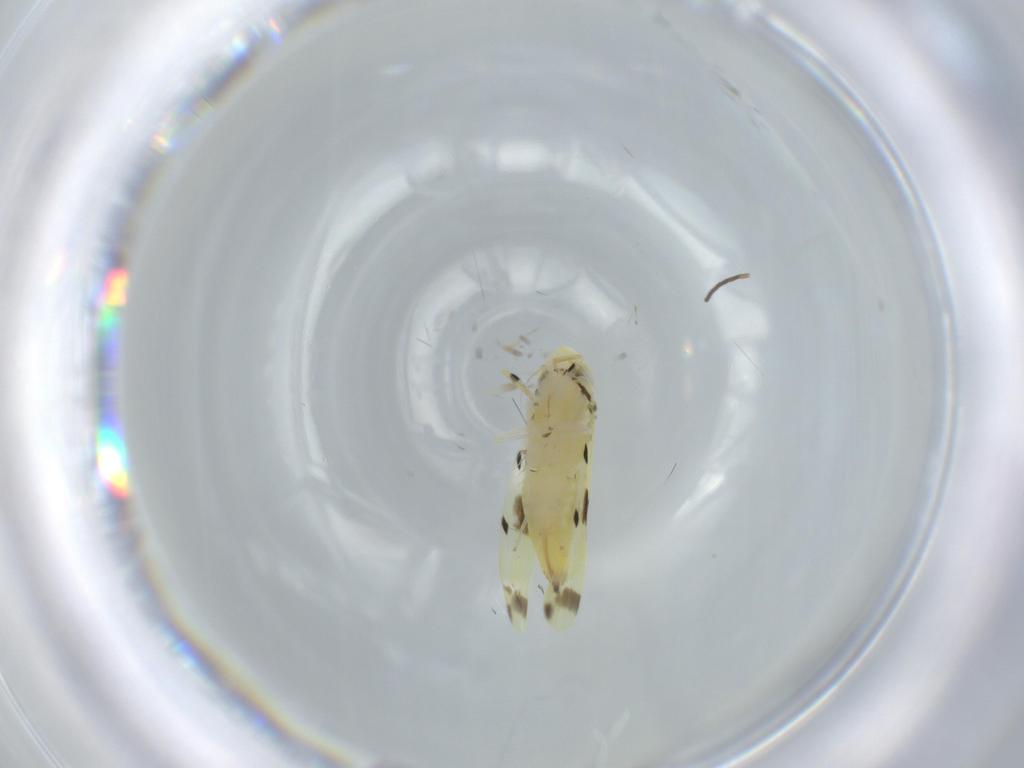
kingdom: Animalia
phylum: Arthropoda
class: Insecta
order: Hemiptera
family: Cicadellidae
